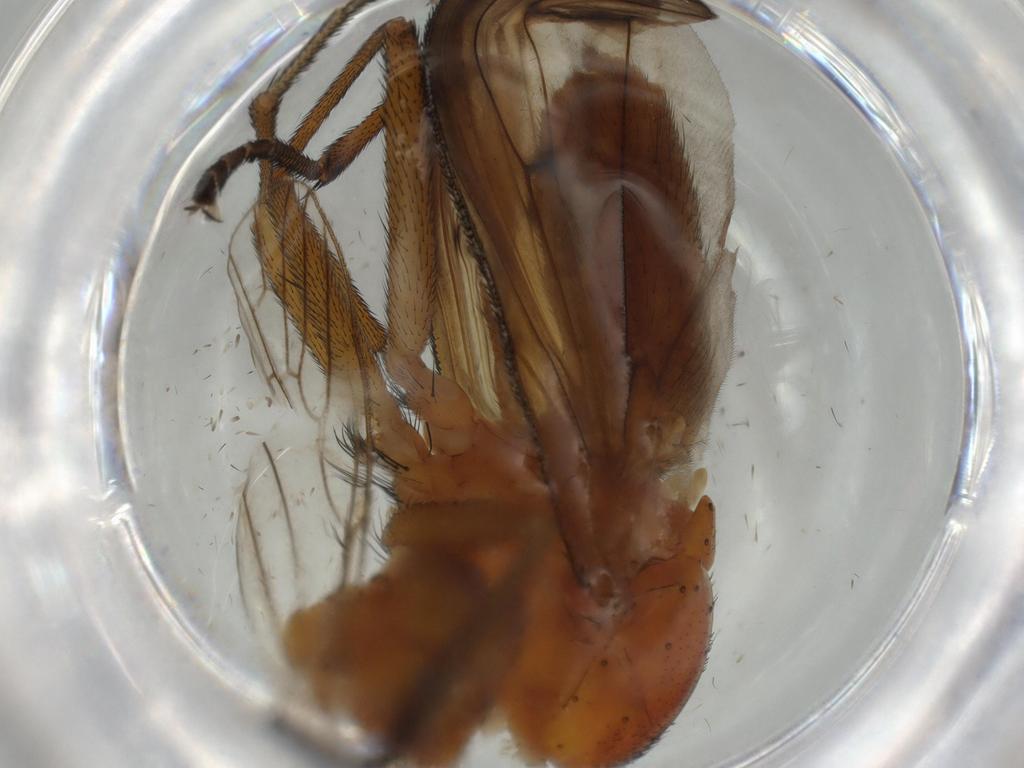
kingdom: Animalia
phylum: Arthropoda
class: Insecta
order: Diptera
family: Sciomyzidae
